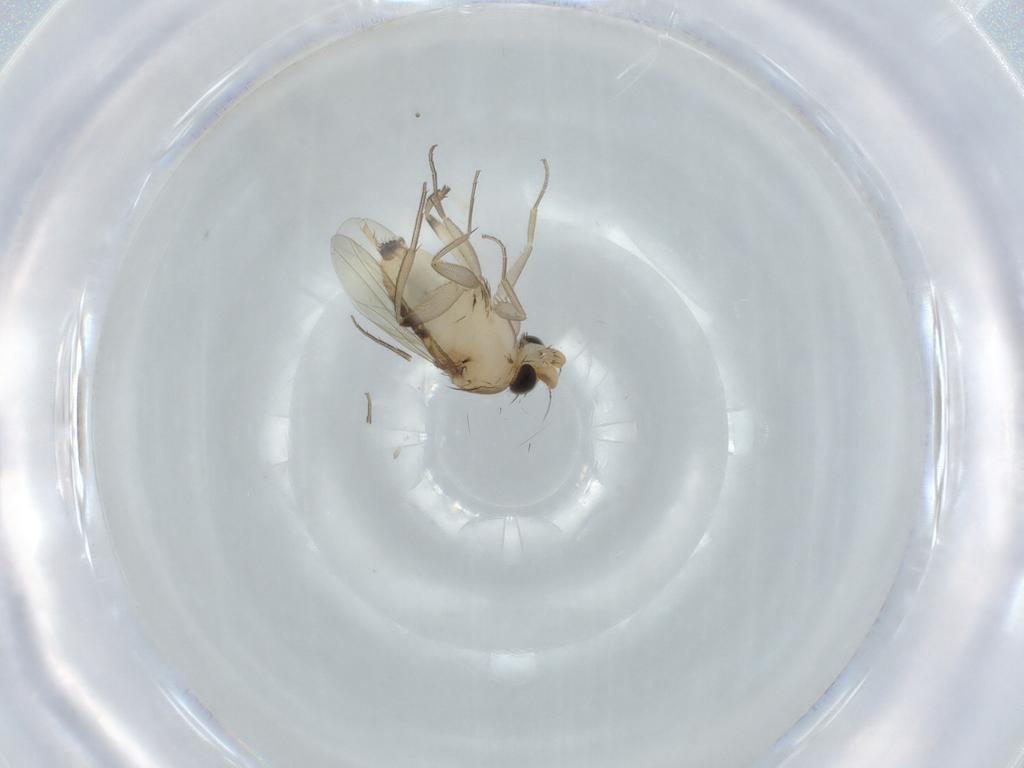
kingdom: Animalia
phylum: Arthropoda
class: Insecta
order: Diptera
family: Phoridae
